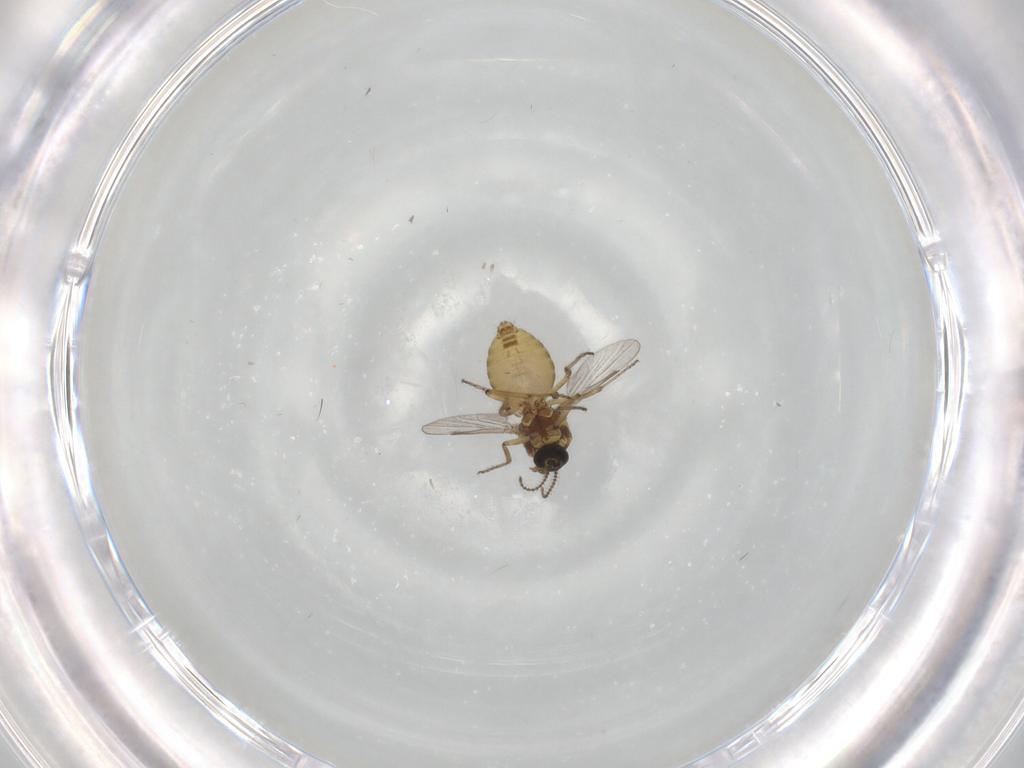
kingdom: Animalia
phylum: Arthropoda
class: Insecta
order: Diptera
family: Ceratopogonidae
